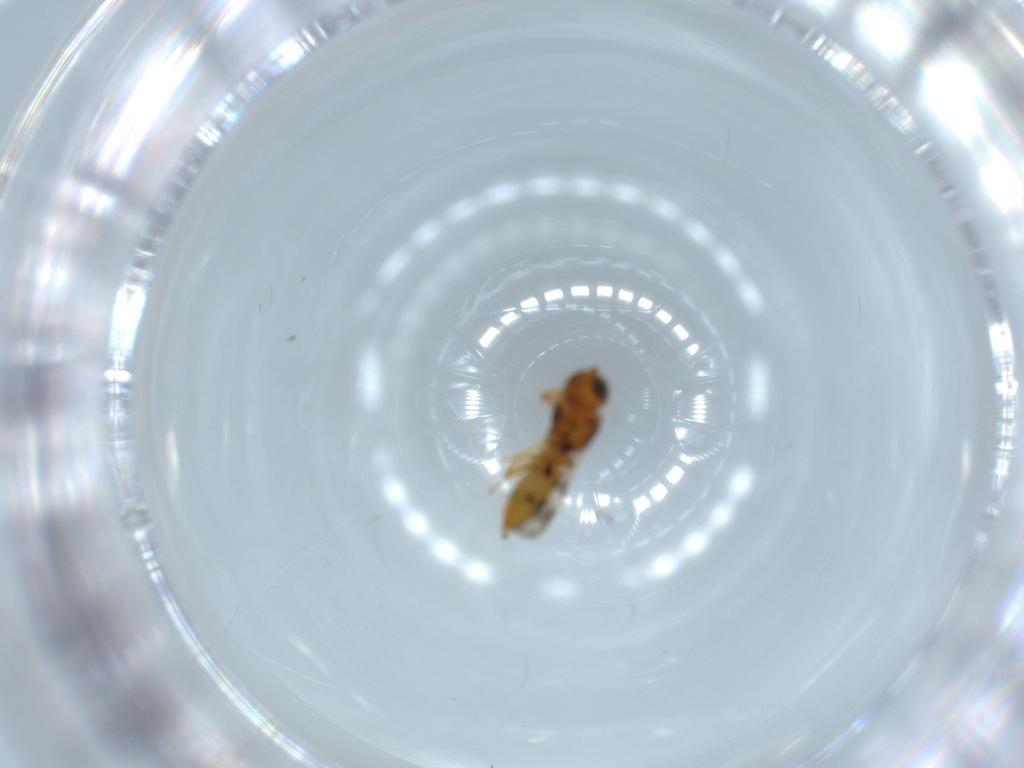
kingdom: Animalia
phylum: Arthropoda
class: Insecta
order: Hymenoptera
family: Scelionidae
